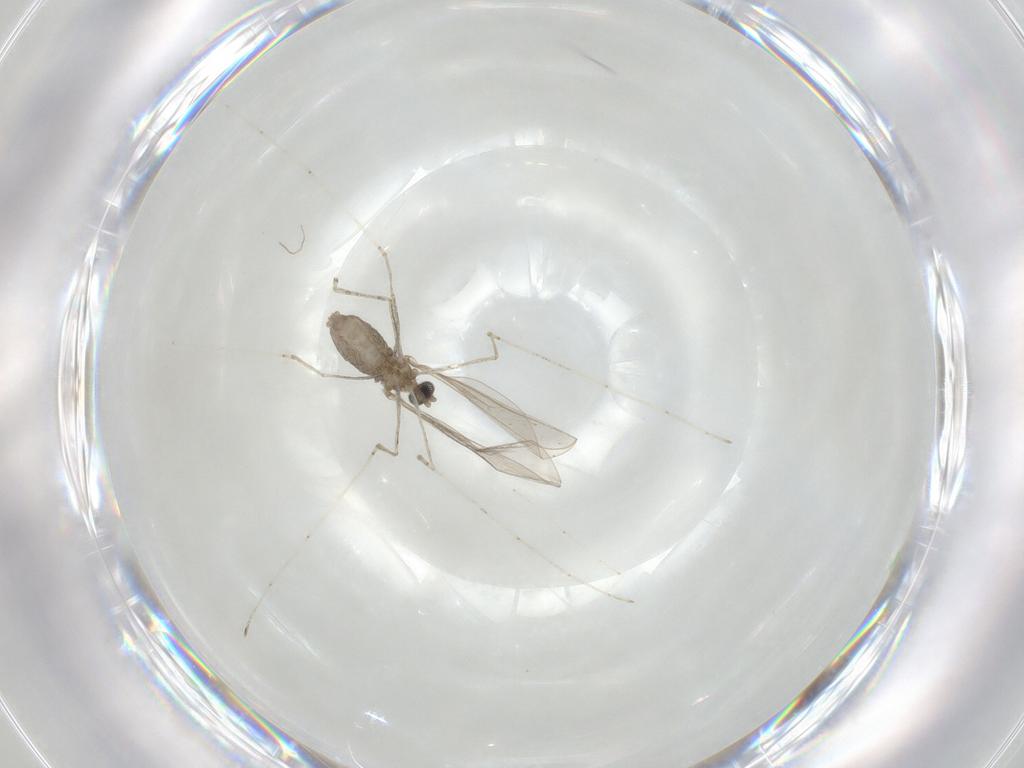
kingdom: Animalia
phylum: Arthropoda
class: Insecta
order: Diptera
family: Cecidomyiidae
